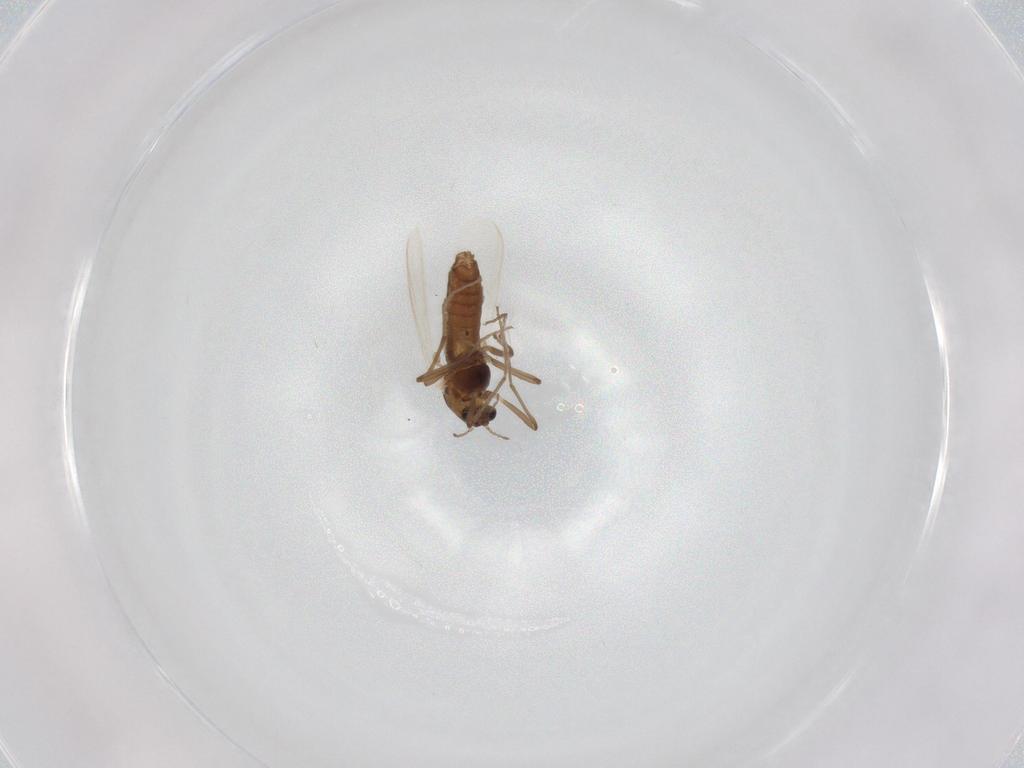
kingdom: Animalia
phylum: Arthropoda
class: Insecta
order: Diptera
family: Chironomidae
